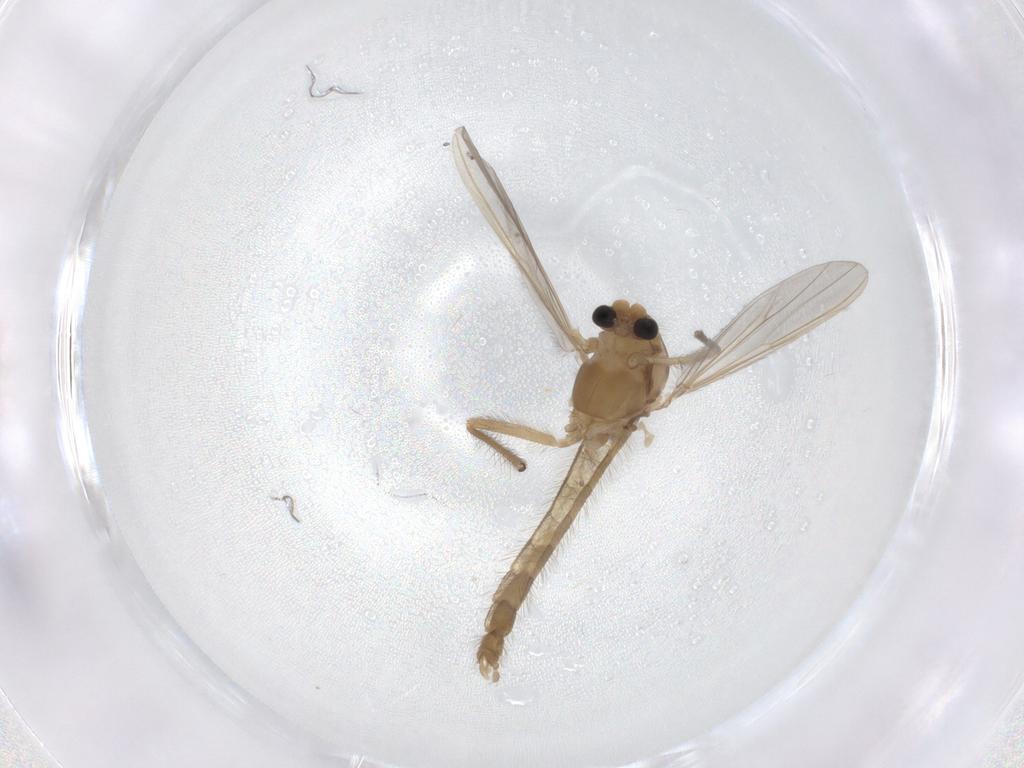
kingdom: Animalia
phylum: Arthropoda
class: Insecta
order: Diptera
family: Chironomidae
